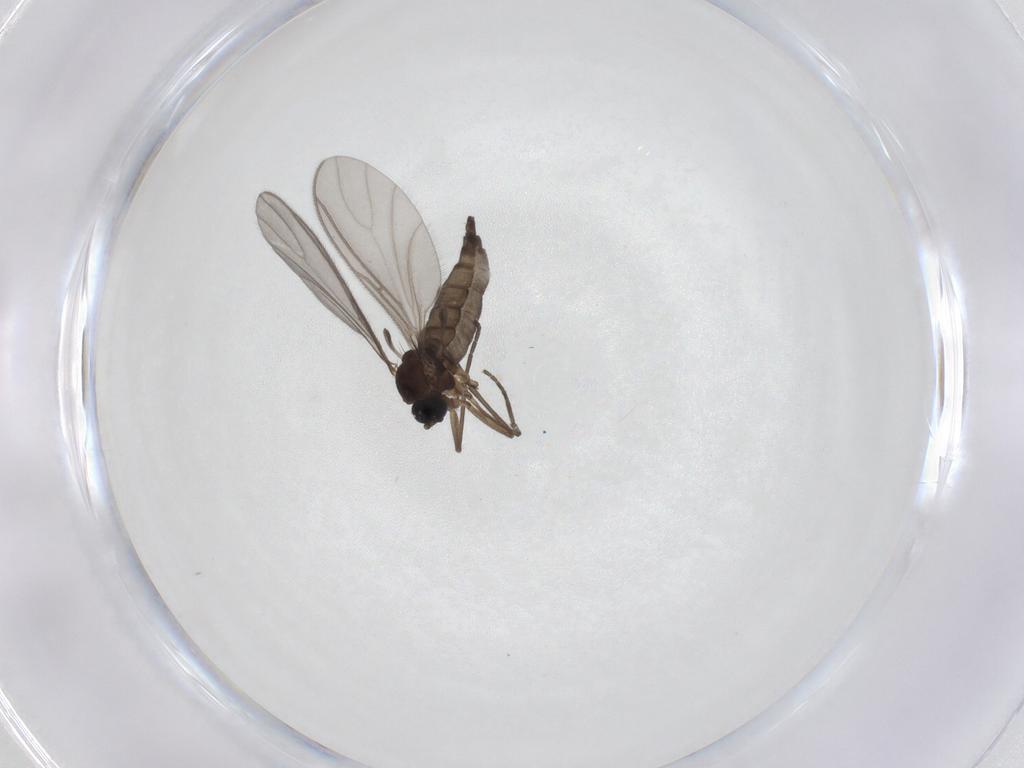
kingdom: Animalia
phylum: Arthropoda
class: Insecta
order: Diptera
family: Sciaridae
